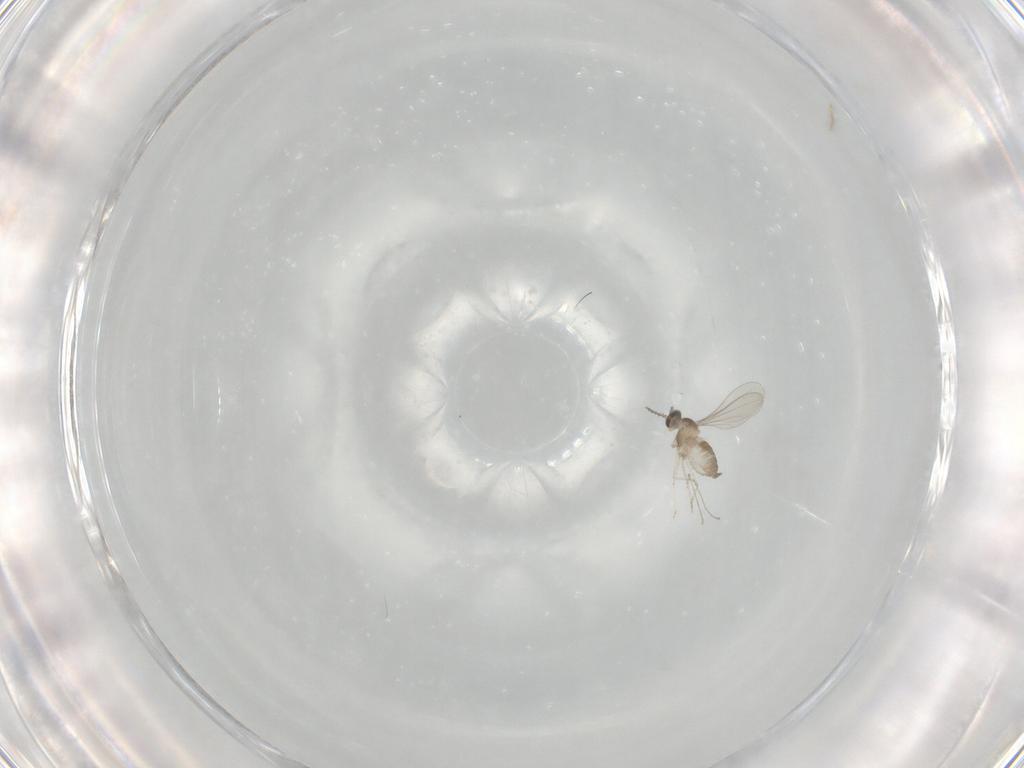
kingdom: Animalia
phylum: Arthropoda
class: Insecta
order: Diptera
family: Cecidomyiidae
